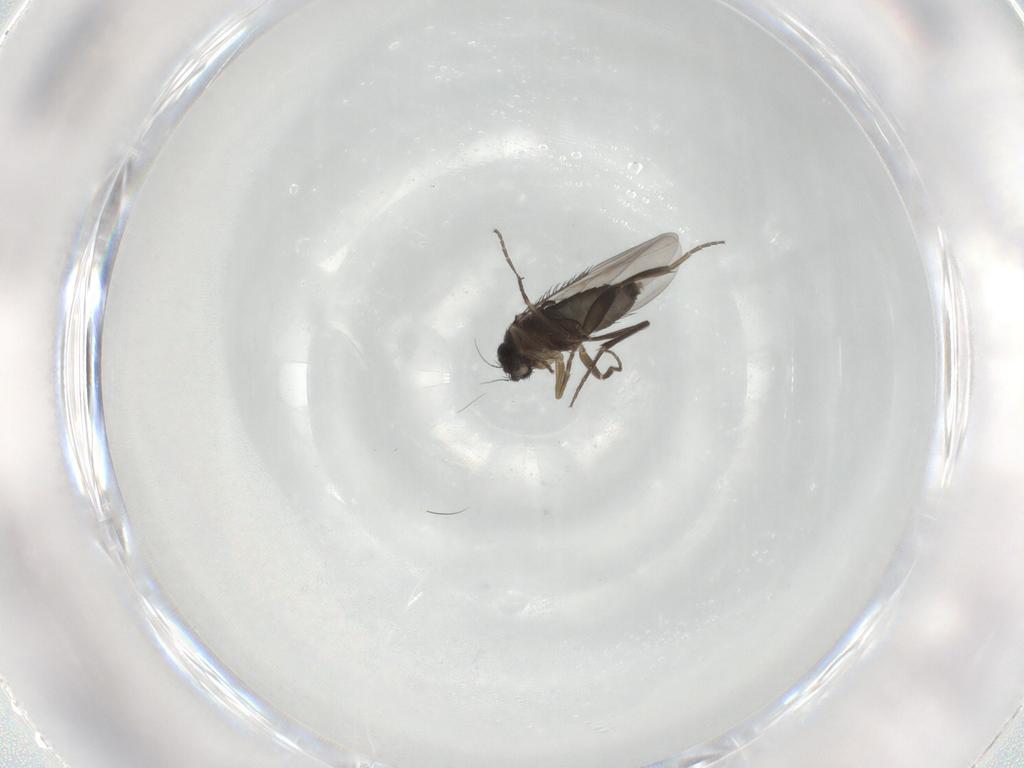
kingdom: Animalia
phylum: Arthropoda
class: Insecta
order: Diptera
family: Phoridae
